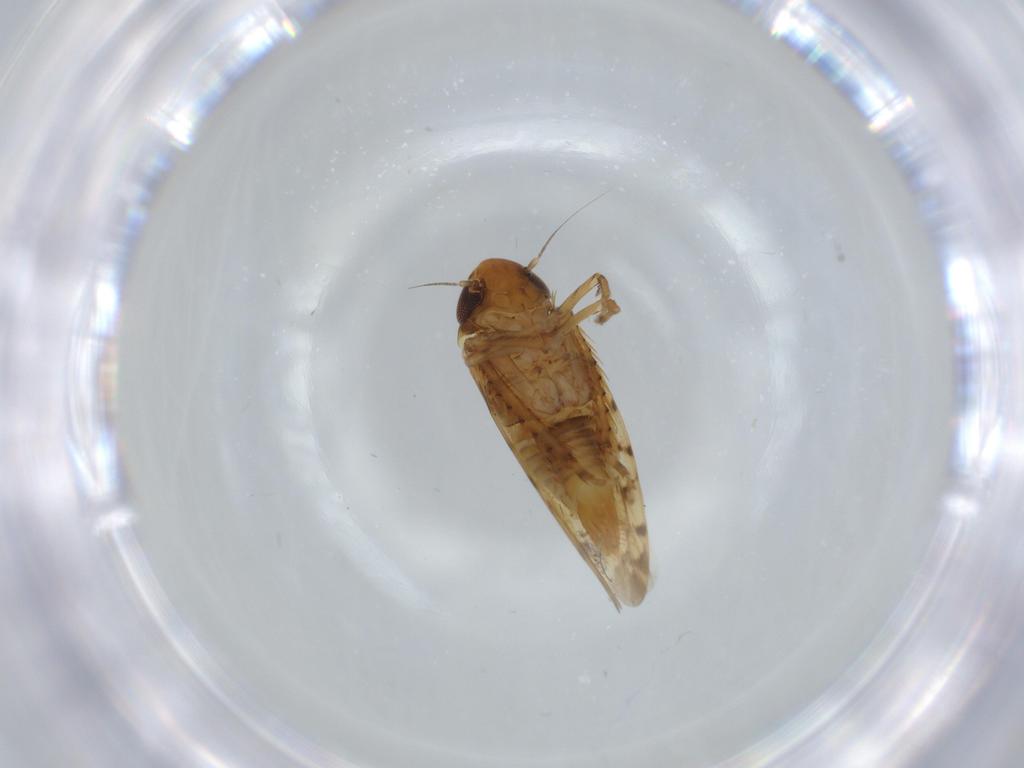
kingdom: Animalia
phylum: Arthropoda
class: Insecta
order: Hemiptera
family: Cicadellidae
